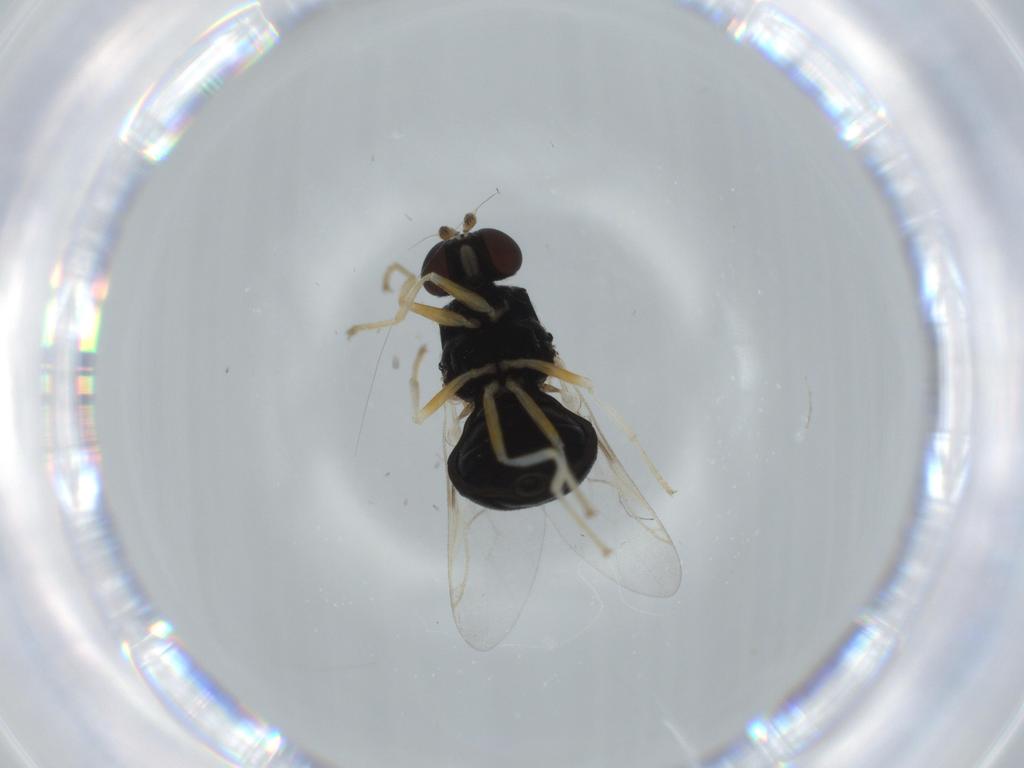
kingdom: Animalia
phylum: Arthropoda
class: Insecta
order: Diptera
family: Stratiomyidae
